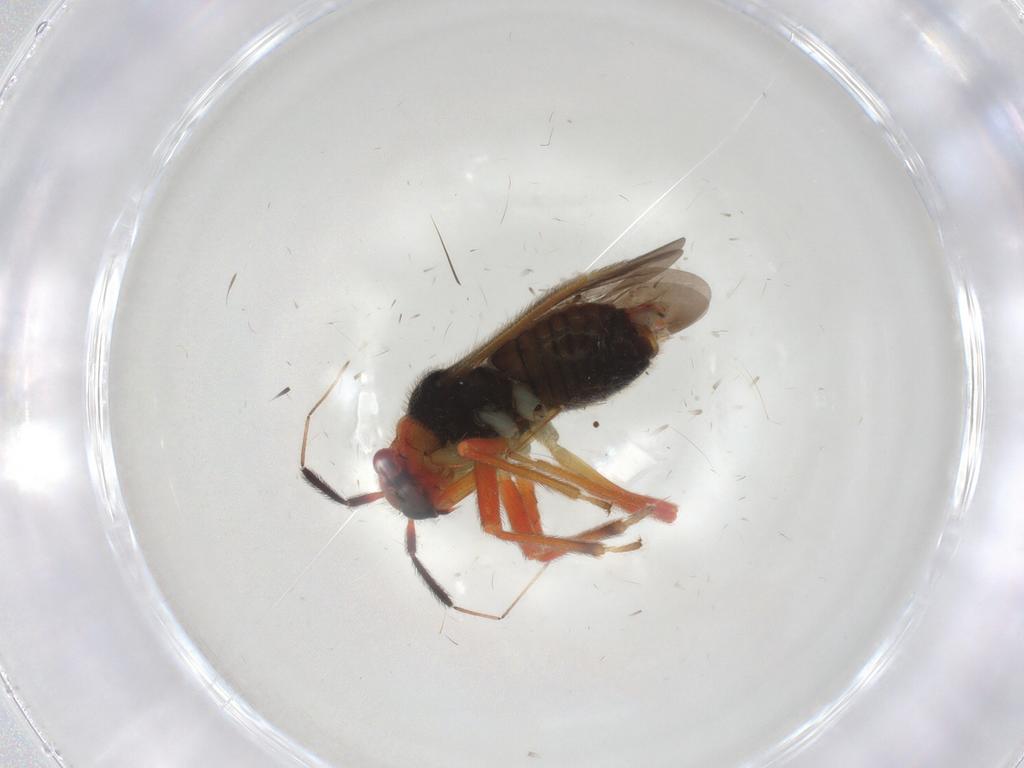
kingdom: Animalia
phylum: Arthropoda
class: Insecta
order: Hemiptera
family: Miridae
